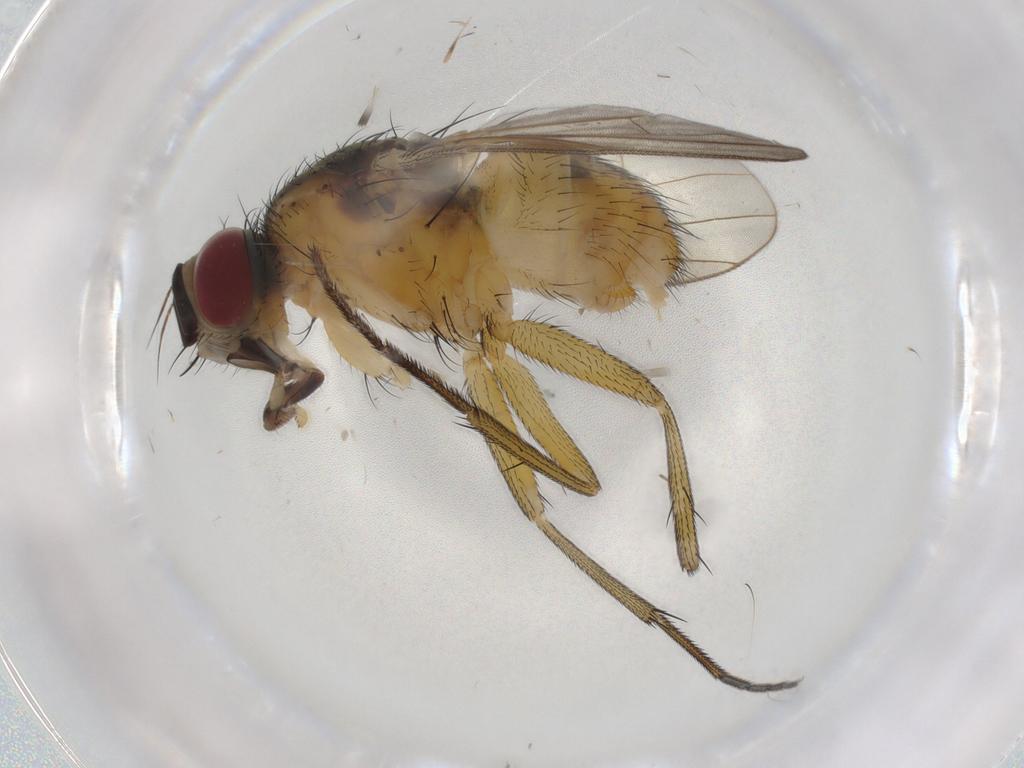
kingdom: Animalia
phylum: Arthropoda
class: Insecta
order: Diptera
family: Muscidae
